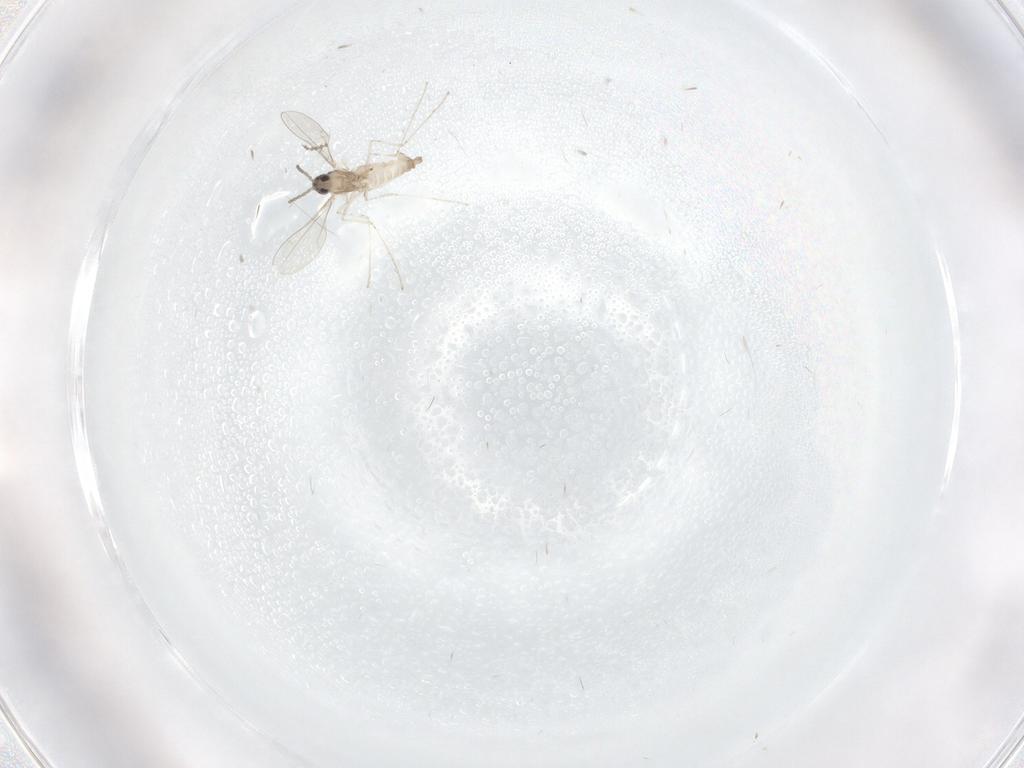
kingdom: Animalia
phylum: Arthropoda
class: Insecta
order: Diptera
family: Cecidomyiidae
